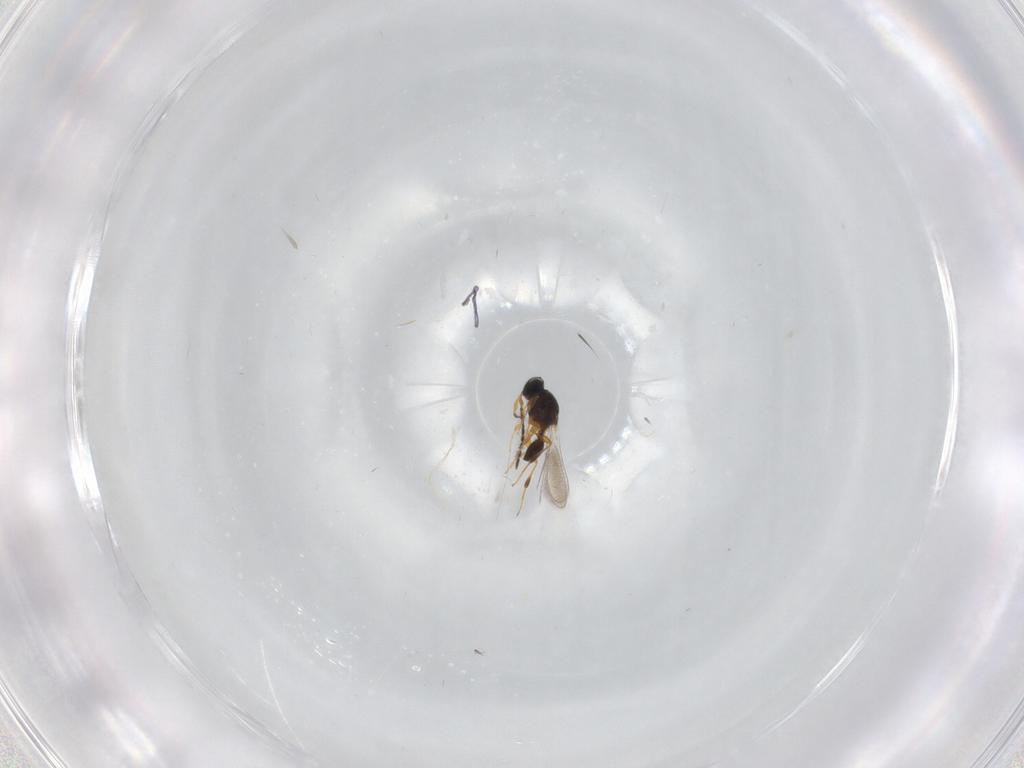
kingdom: Animalia
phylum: Arthropoda
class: Insecta
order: Hymenoptera
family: Platygastridae
